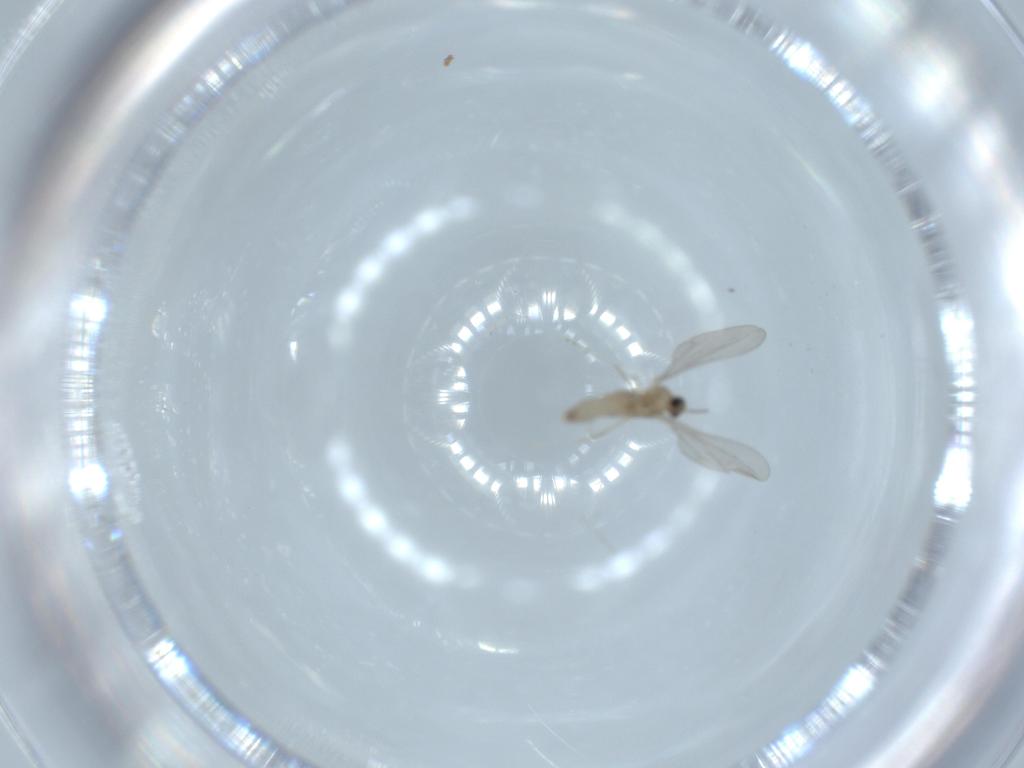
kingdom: Animalia
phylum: Arthropoda
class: Insecta
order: Diptera
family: Cecidomyiidae
